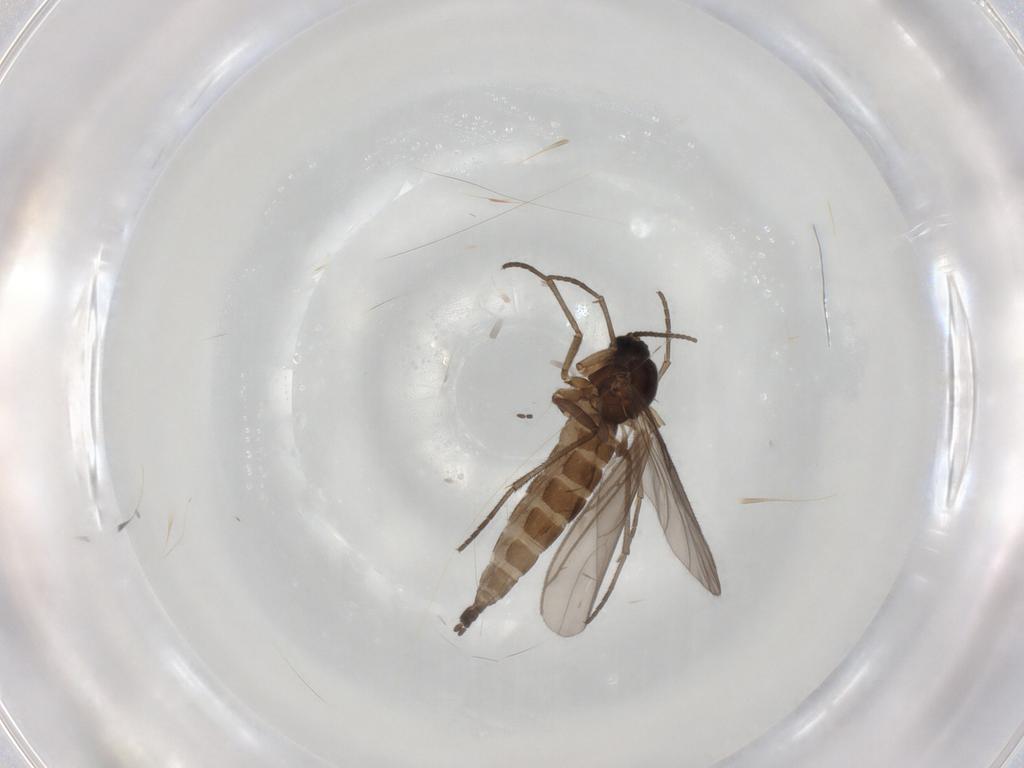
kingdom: Animalia
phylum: Arthropoda
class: Insecta
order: Diptera
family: Sciaridae
